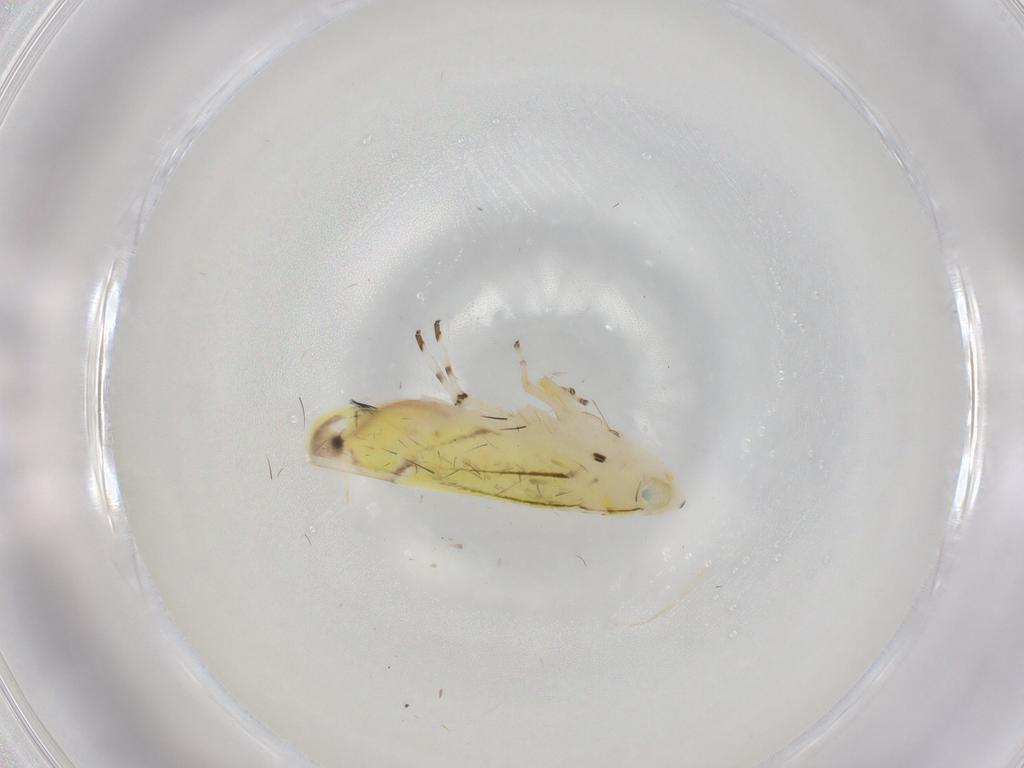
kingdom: Animalia
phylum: Arthropoda
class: Insecta
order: Hemiptera
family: Cicadellidae
